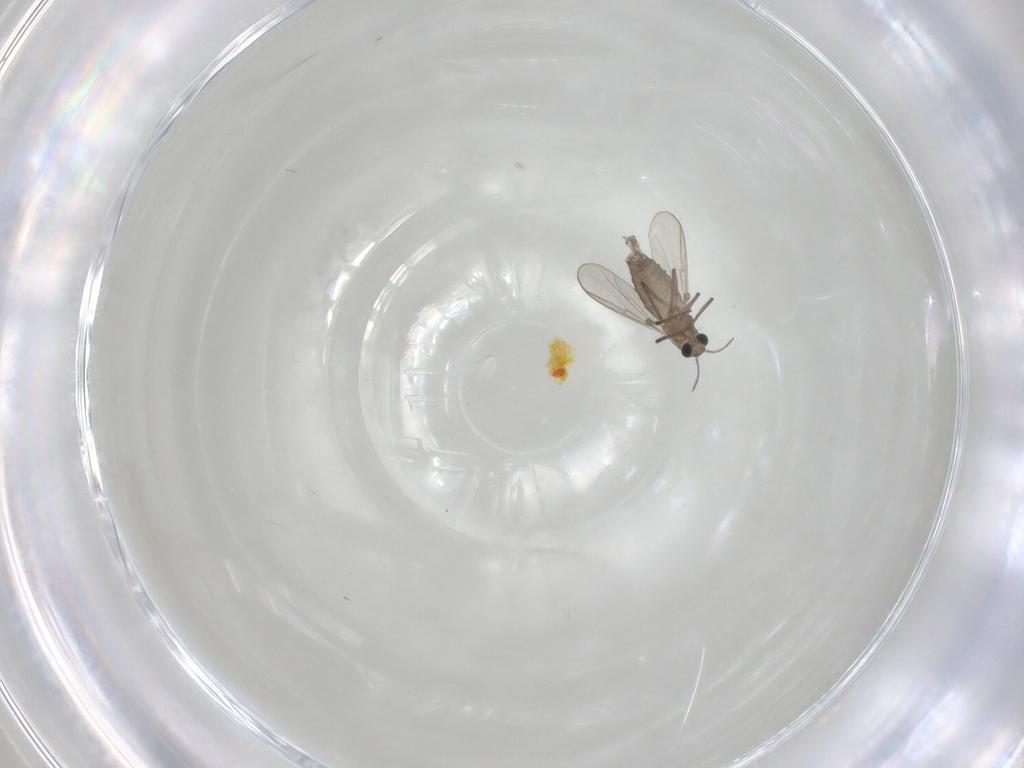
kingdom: Animalia
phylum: Arthropoda
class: Insecta
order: Diptera
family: Chironomidae
